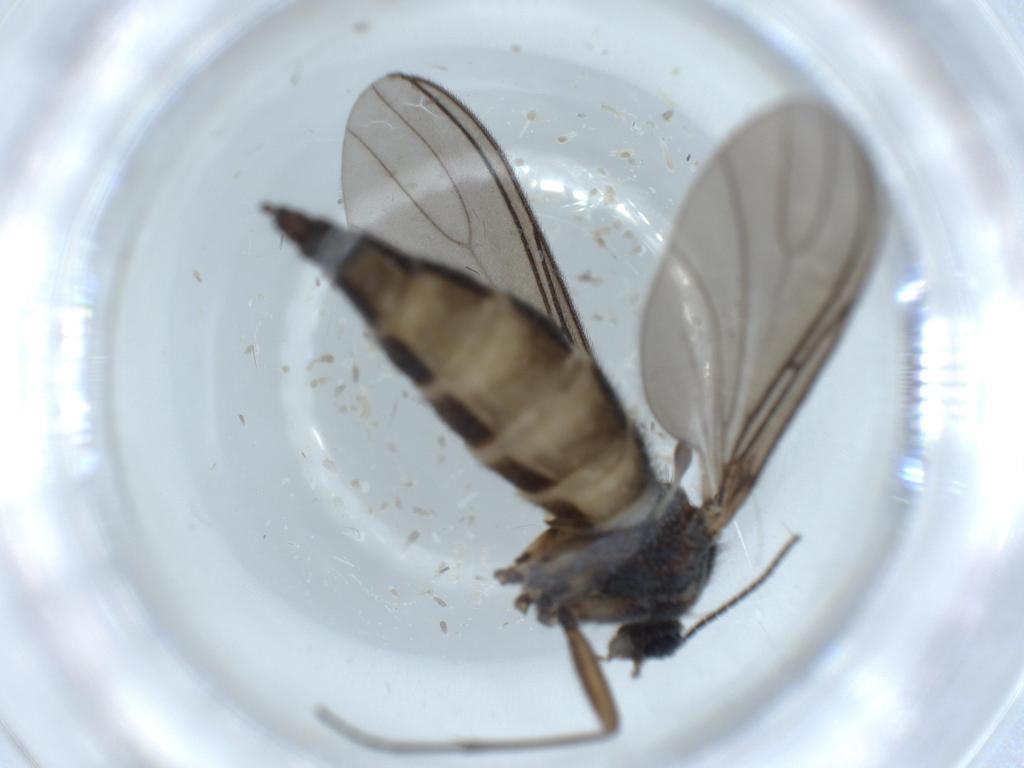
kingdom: Animalia
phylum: Arthropoda
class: Insecta
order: Diptera
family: Sciaridae
